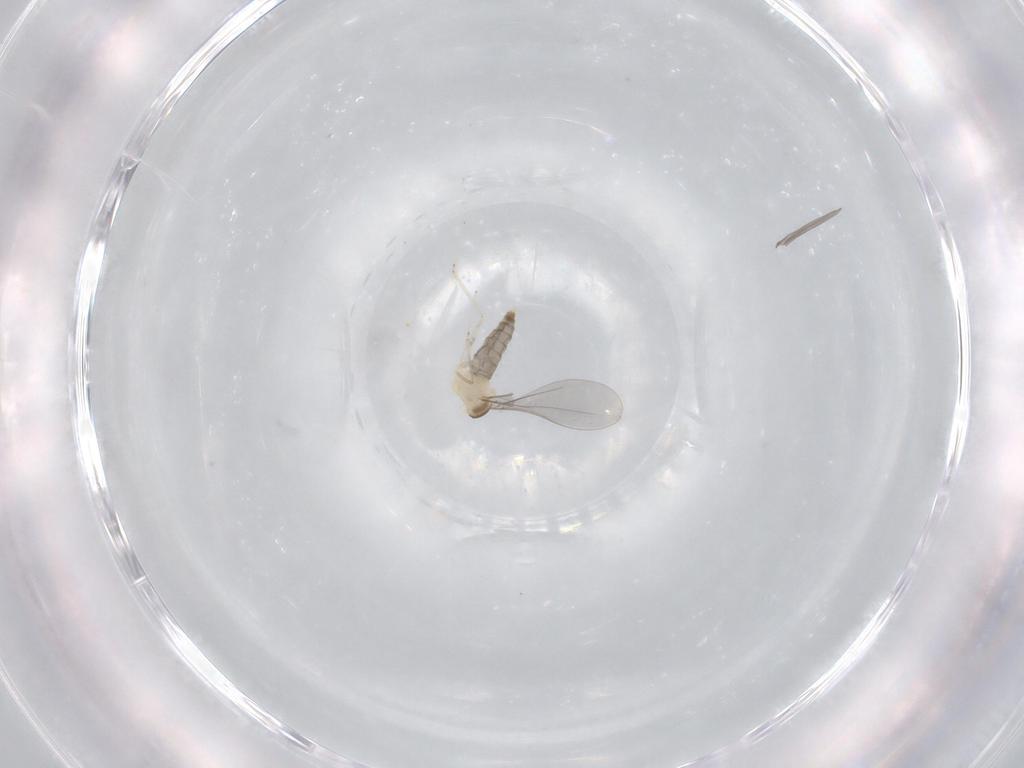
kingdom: Animalia
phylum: Arthropoda
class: Insecta
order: Diptera
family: Cecidomyiidae
